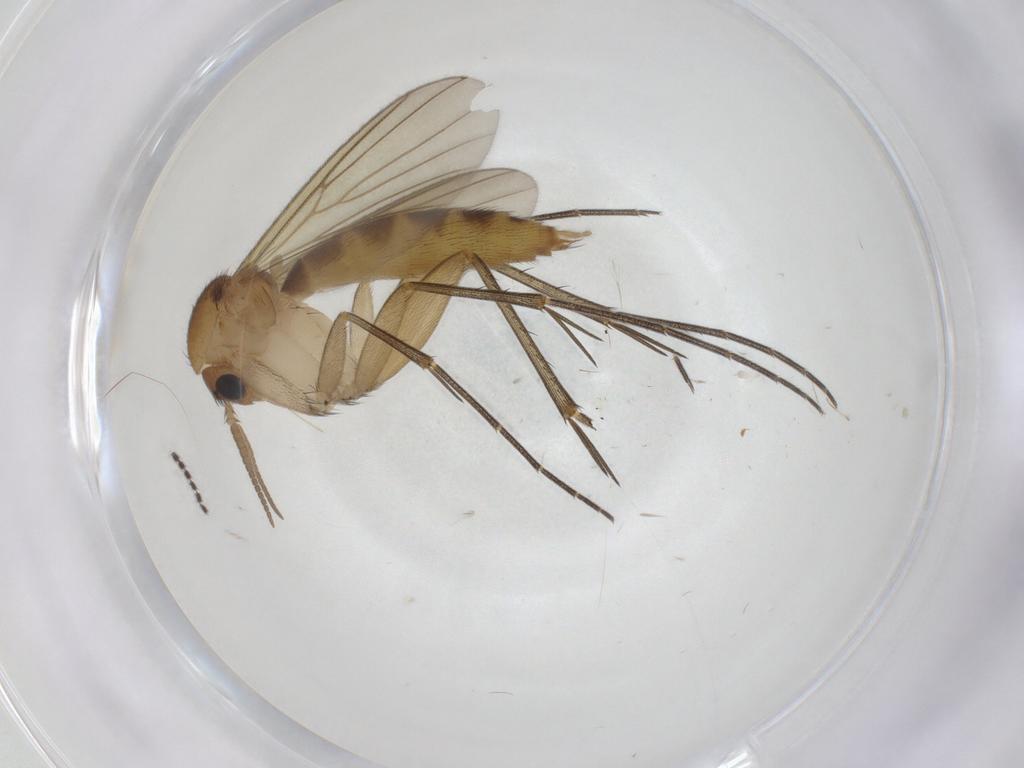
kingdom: Animalia
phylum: Arthropoda
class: Insecta
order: Diptera
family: Mycetophilidae
